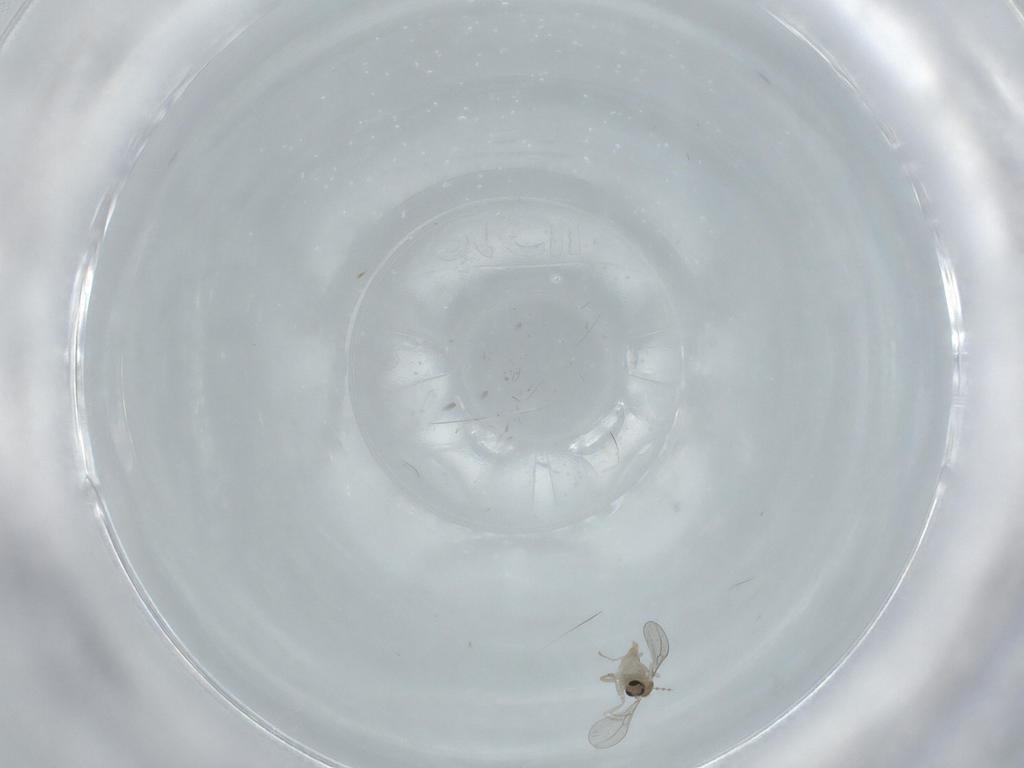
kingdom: Animalia
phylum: Arthropoda
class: Insecta
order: Diptera
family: Cecidomyiidae
